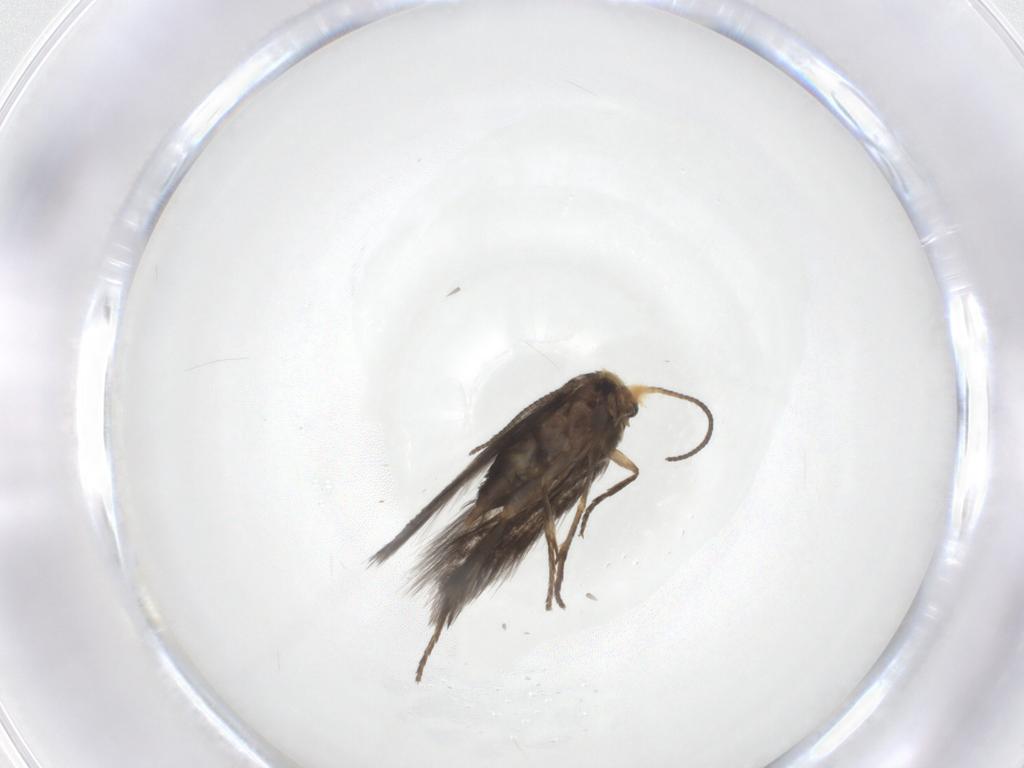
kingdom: Animalia
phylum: Arthropoda
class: Insecta
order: Lepidoptera
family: Nepticulidae
